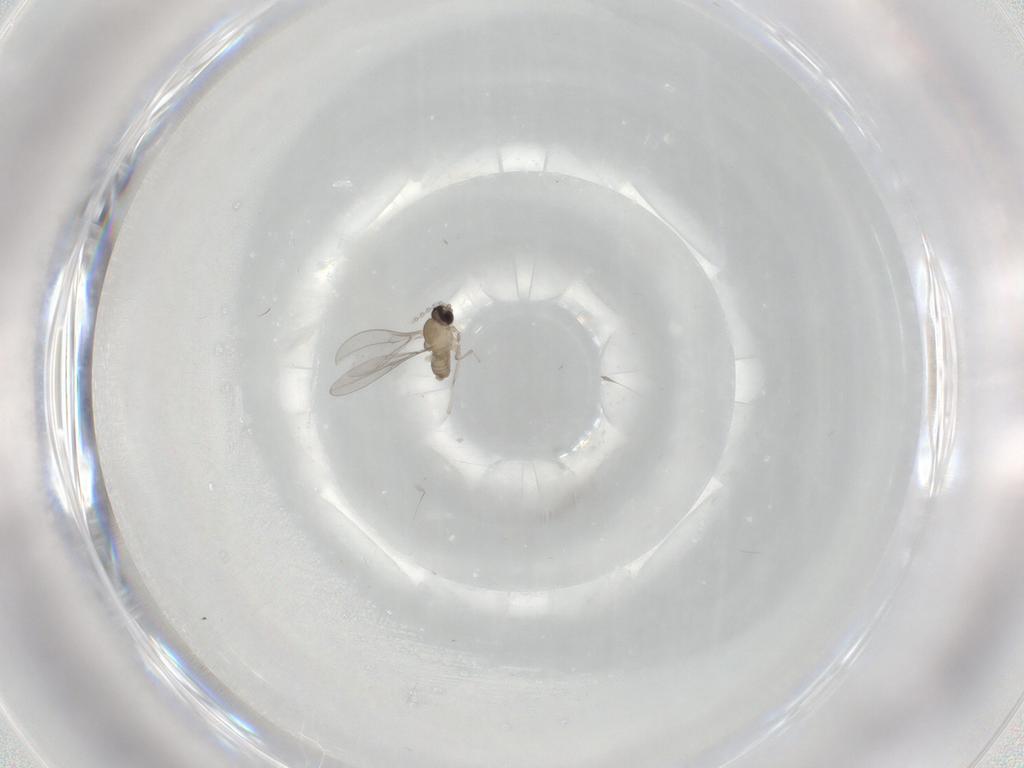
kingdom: Animalia
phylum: Arthropoda
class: Insecta
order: Diptera
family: Cecidomyiidae
